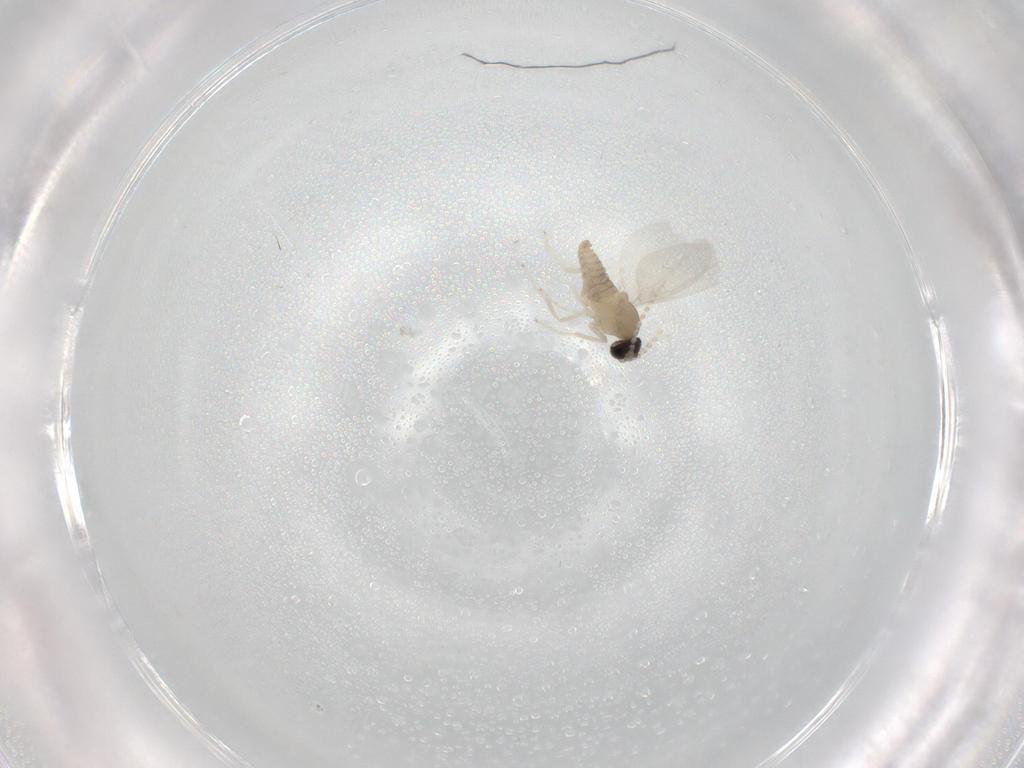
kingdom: Animalia
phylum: Arthropoda
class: Insecta
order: Diptera
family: Cecidomyiidae
